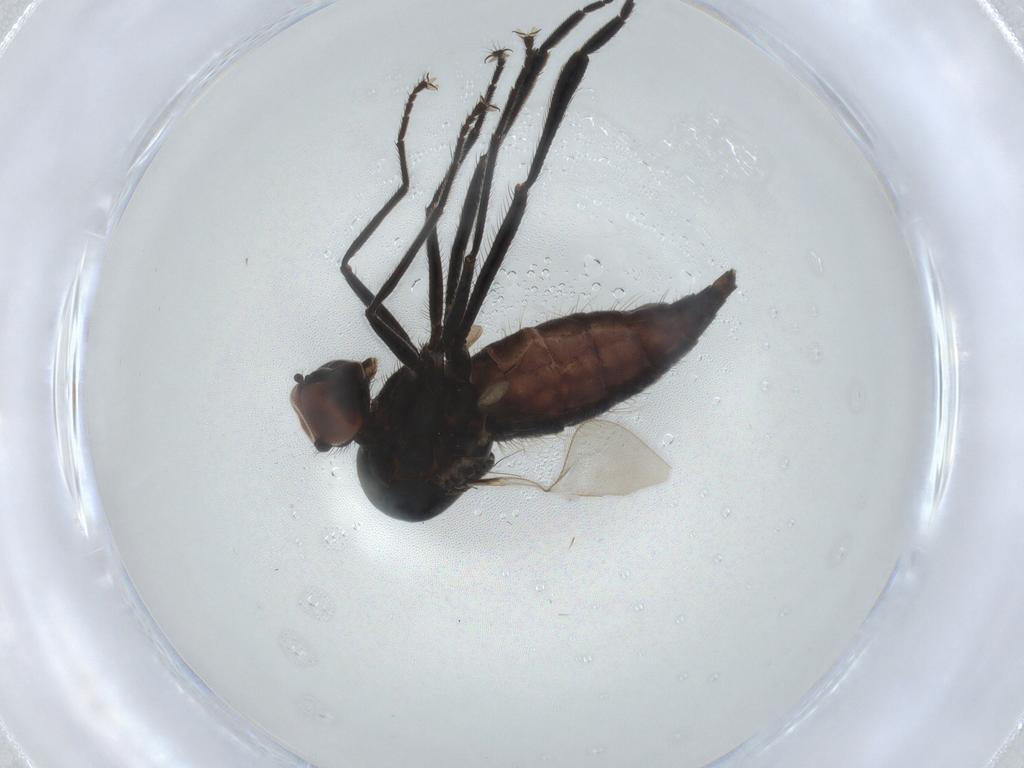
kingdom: Animalia
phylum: Arthropoda
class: Insecta
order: Diptera
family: Hybotidae
